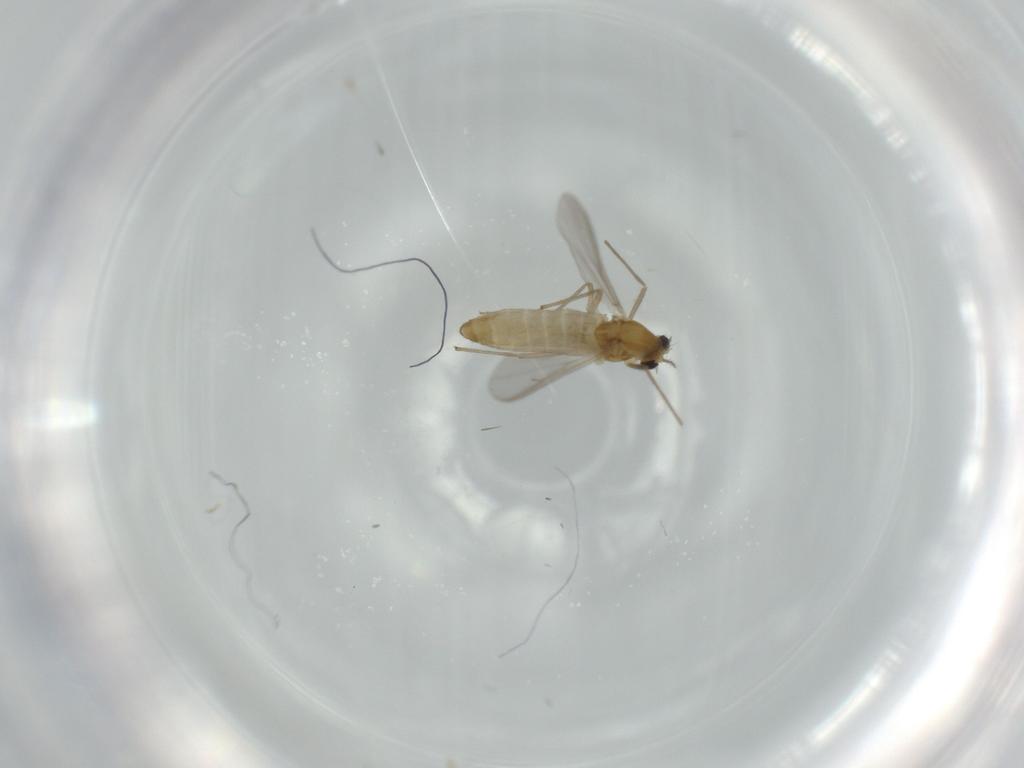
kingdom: Animalia
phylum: Arthropoda
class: Insecta
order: Diptera
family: Chironomidae
